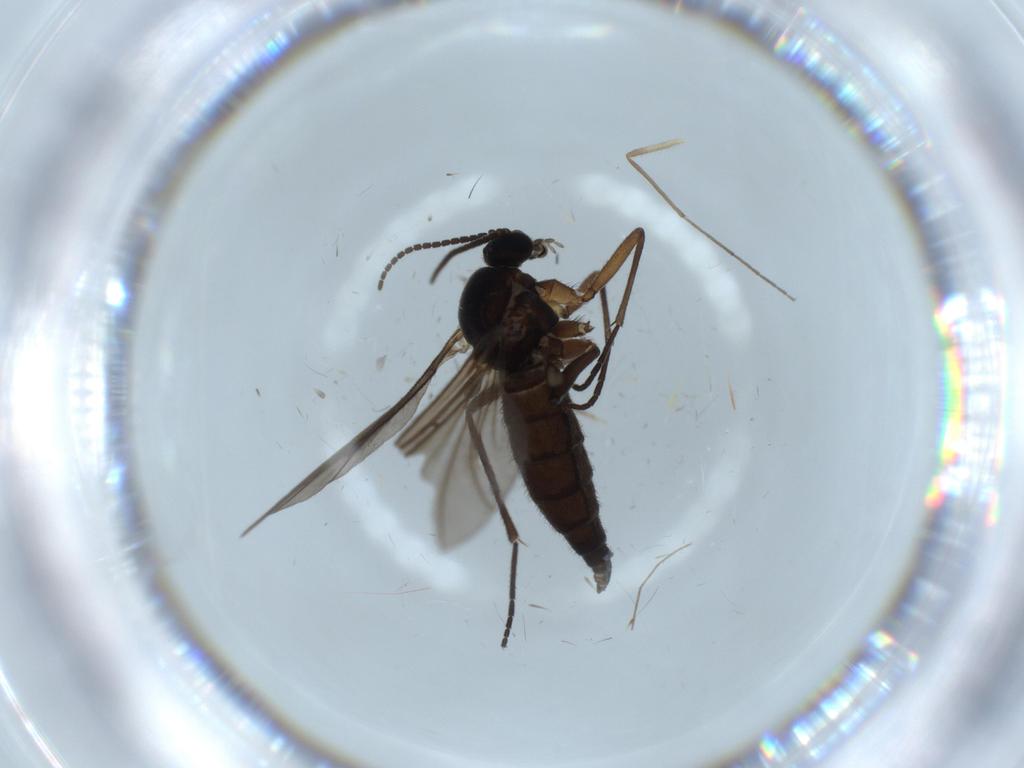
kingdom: Animalia
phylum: Arthropoda
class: Insecta
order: Diptera
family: Sciaridae
